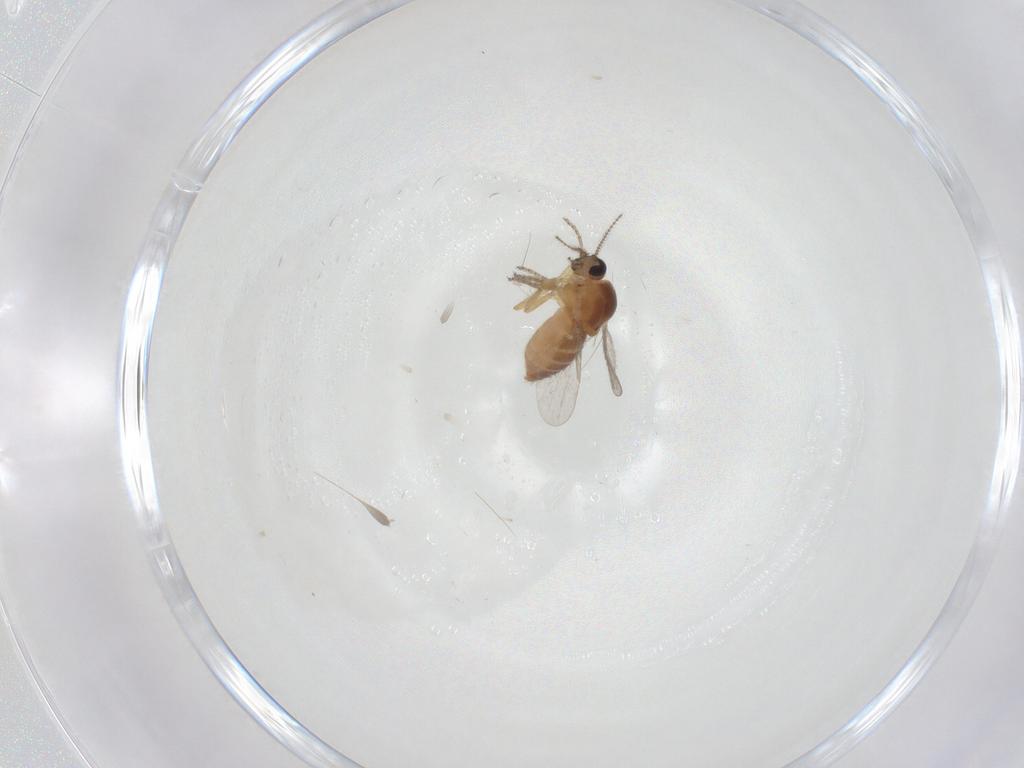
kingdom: Animalia
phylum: Arthropoda
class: Insecta
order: Diptera
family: Ceratopogonidae
